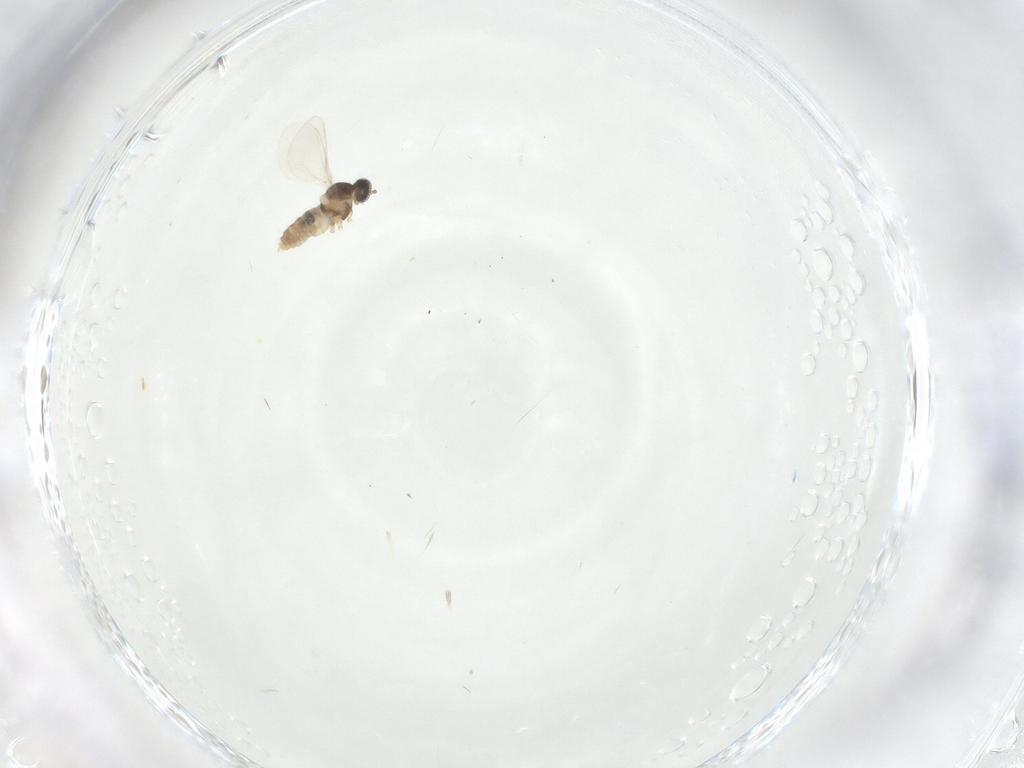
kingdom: Animalia
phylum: Arthropoda
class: Insecta
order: Diptera
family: Cecidomyiidae
